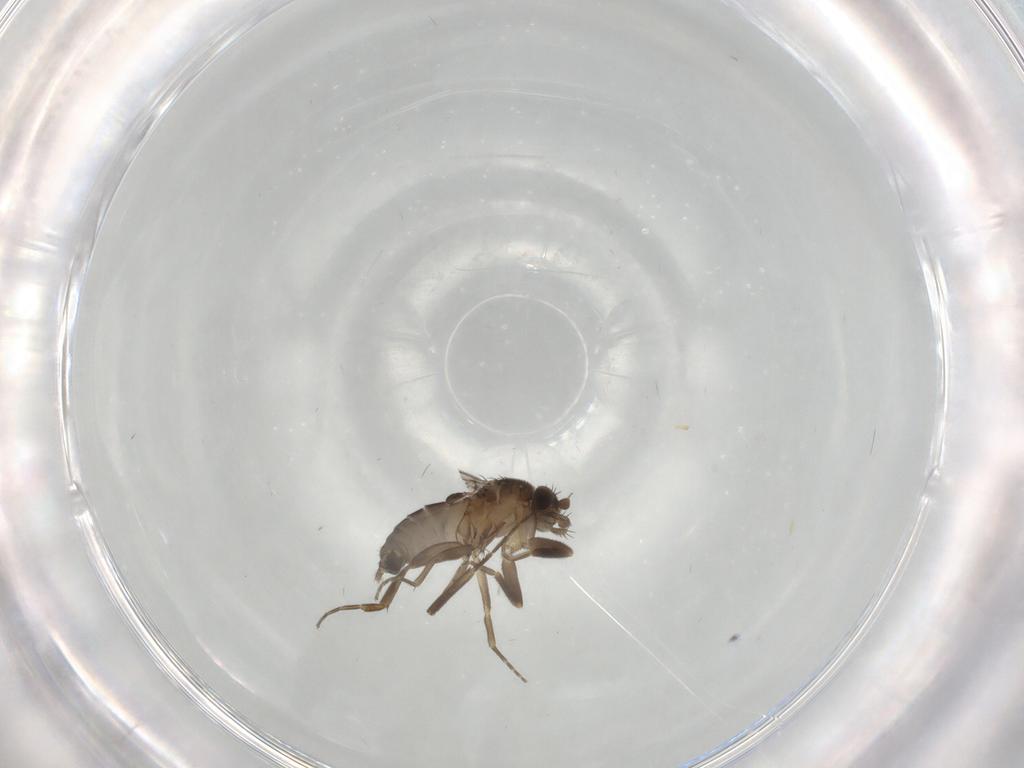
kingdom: Animalia
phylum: Arthropoda
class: Insecta
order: Diptera
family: Phoridae
